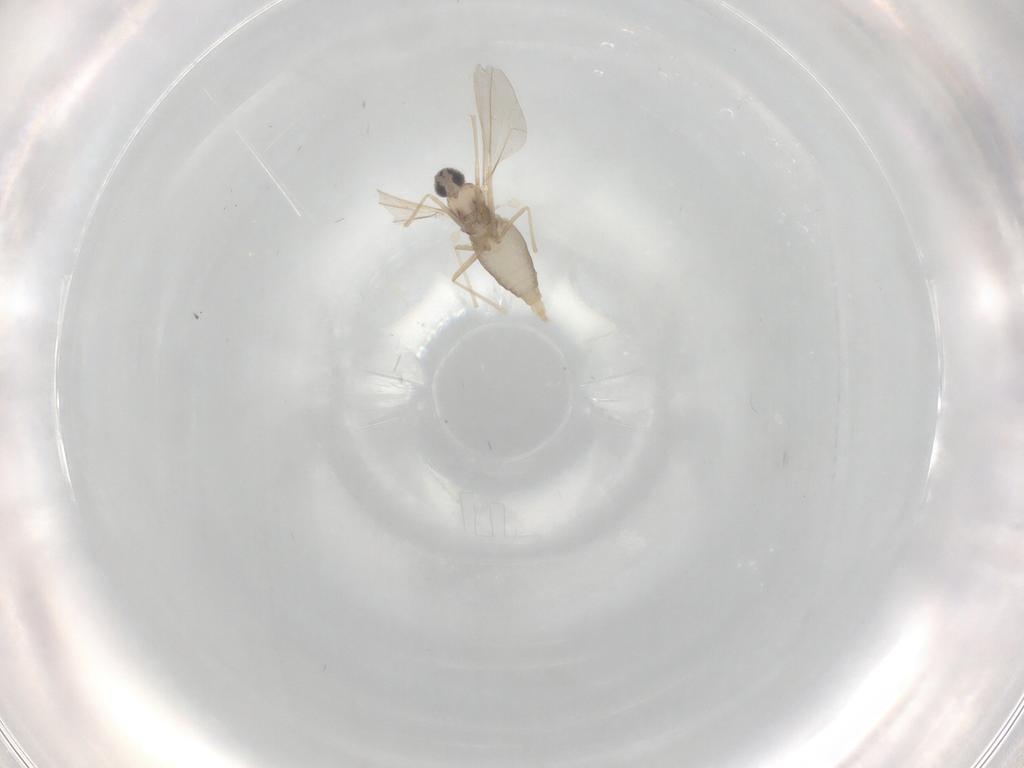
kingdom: Animalia
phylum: Arthropoda
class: Insecta
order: Diptera
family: Cecidomyiidae
